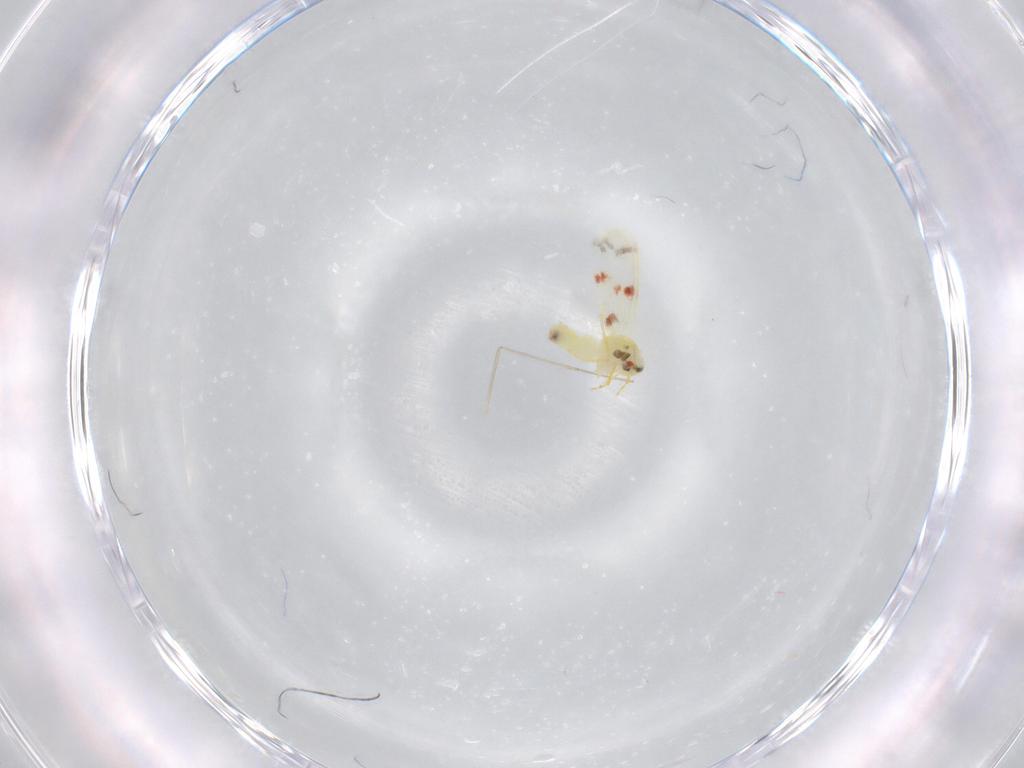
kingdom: Animalia
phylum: Arthropoda
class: Insecta
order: Hemiptera
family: Aleyrodidae
